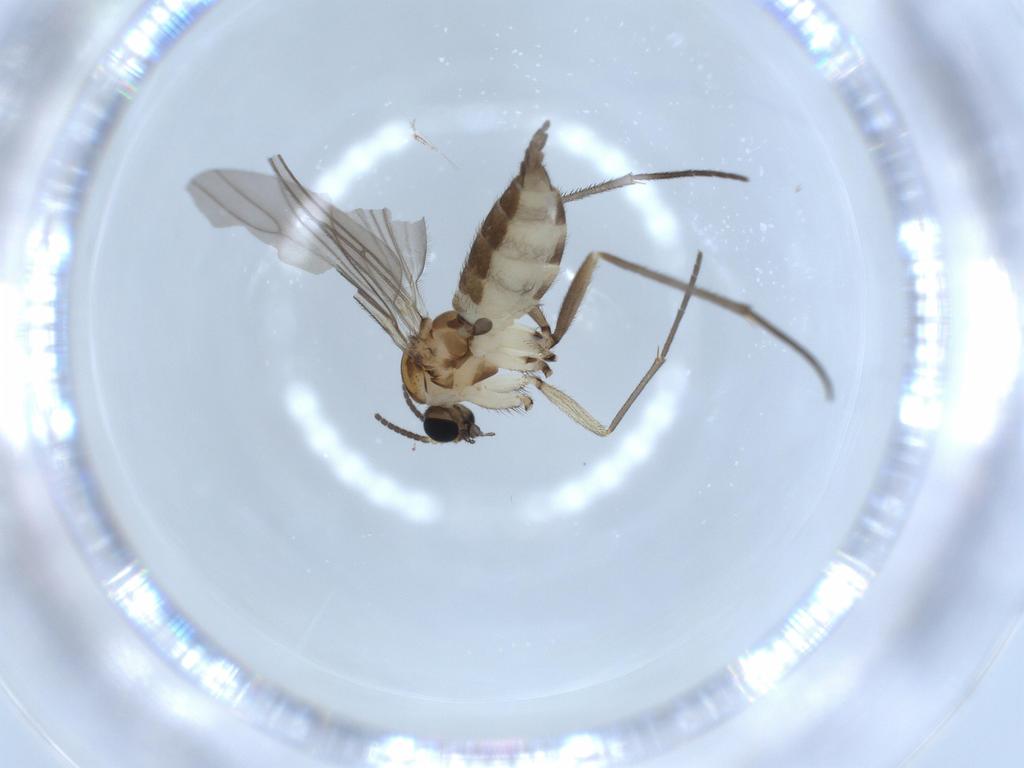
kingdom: Animalia
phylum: Arthropoda
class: Insecta
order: Diptera
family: Sciaridae
